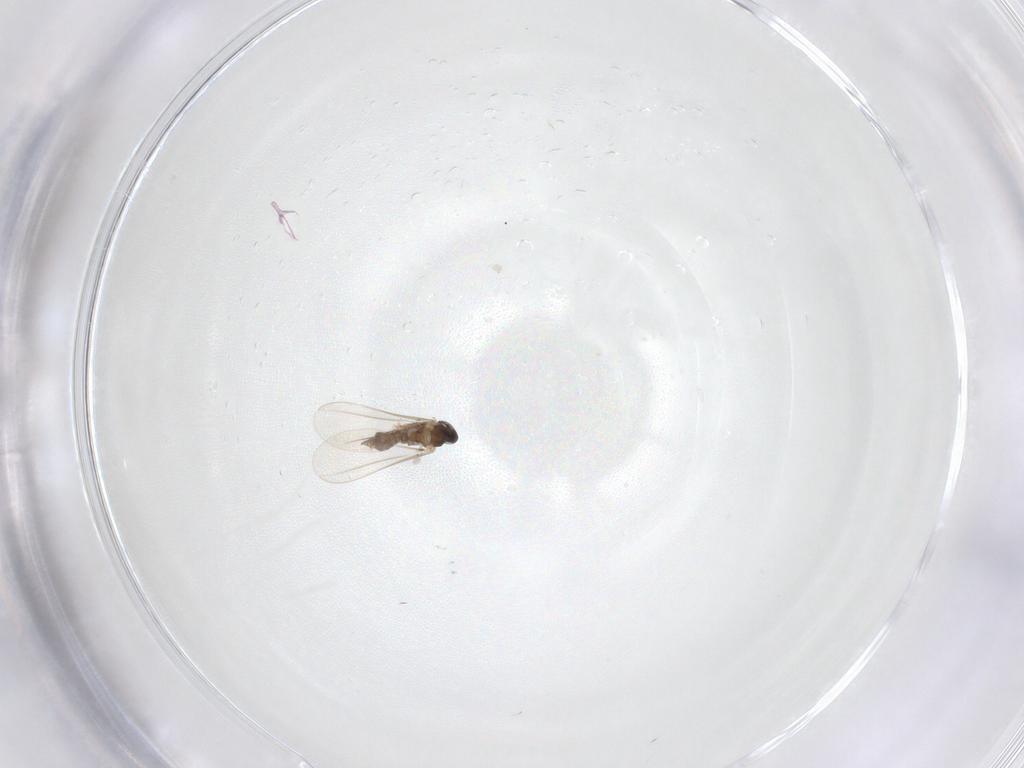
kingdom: Animalia
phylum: Arthropoda
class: Insecta
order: Diptera
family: Cecidomyiidae
